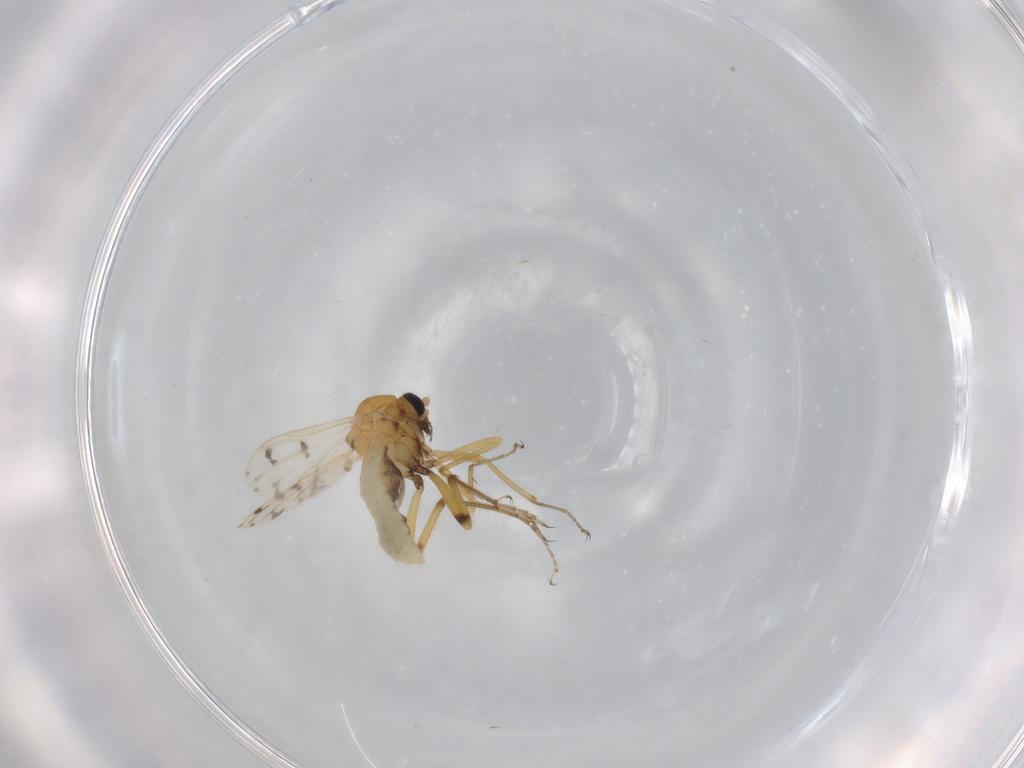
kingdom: Animalia
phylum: Arthropoda
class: Insecta
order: Diptera
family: Ceratopogonidae
